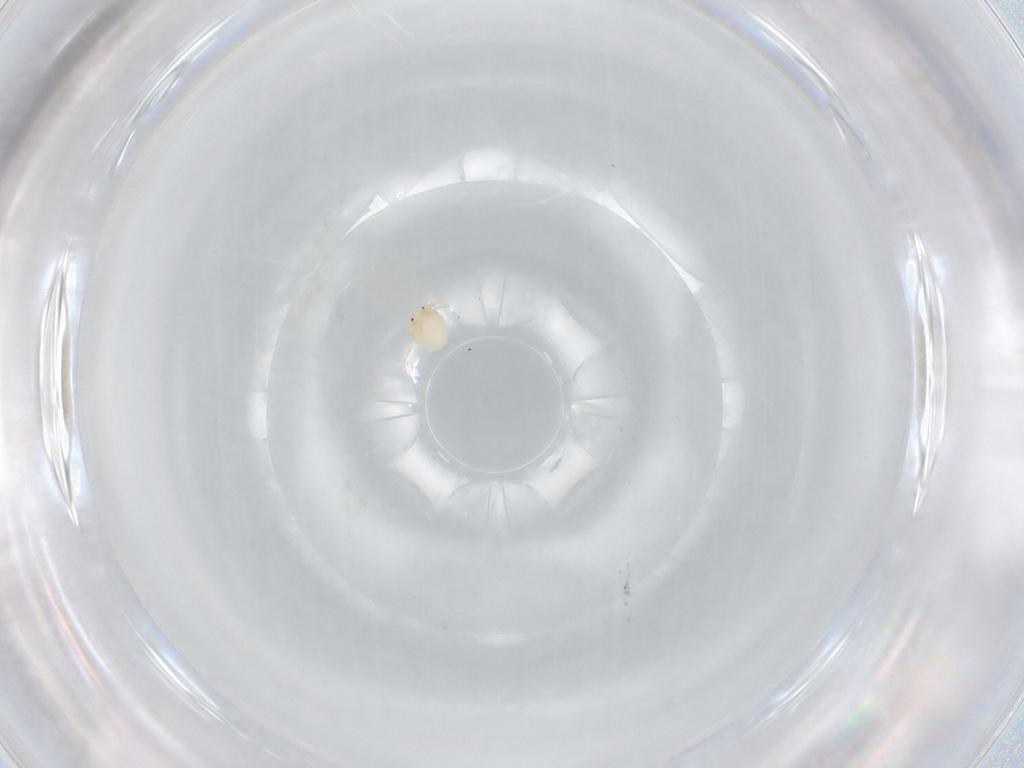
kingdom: Animalia
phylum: Arthropoda
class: Arachnida
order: Trombidiformes
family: Arrenuridae
